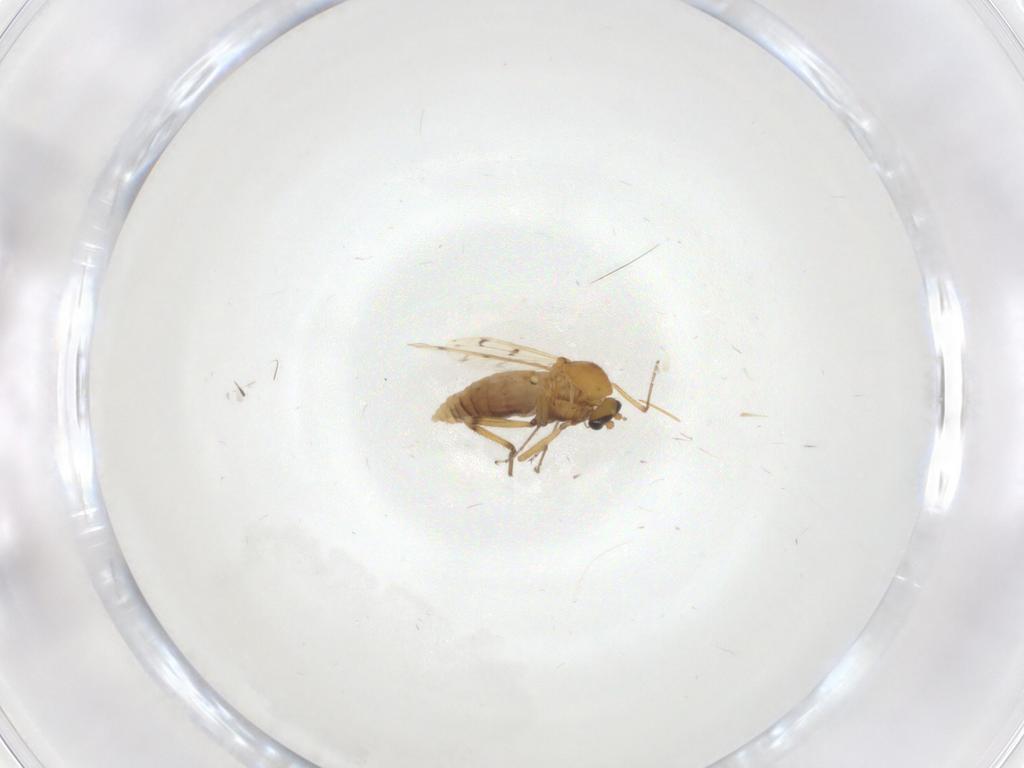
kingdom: Animalia
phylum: Arthropoda
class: Insecta
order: Diptera
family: Ceratopogonidae
